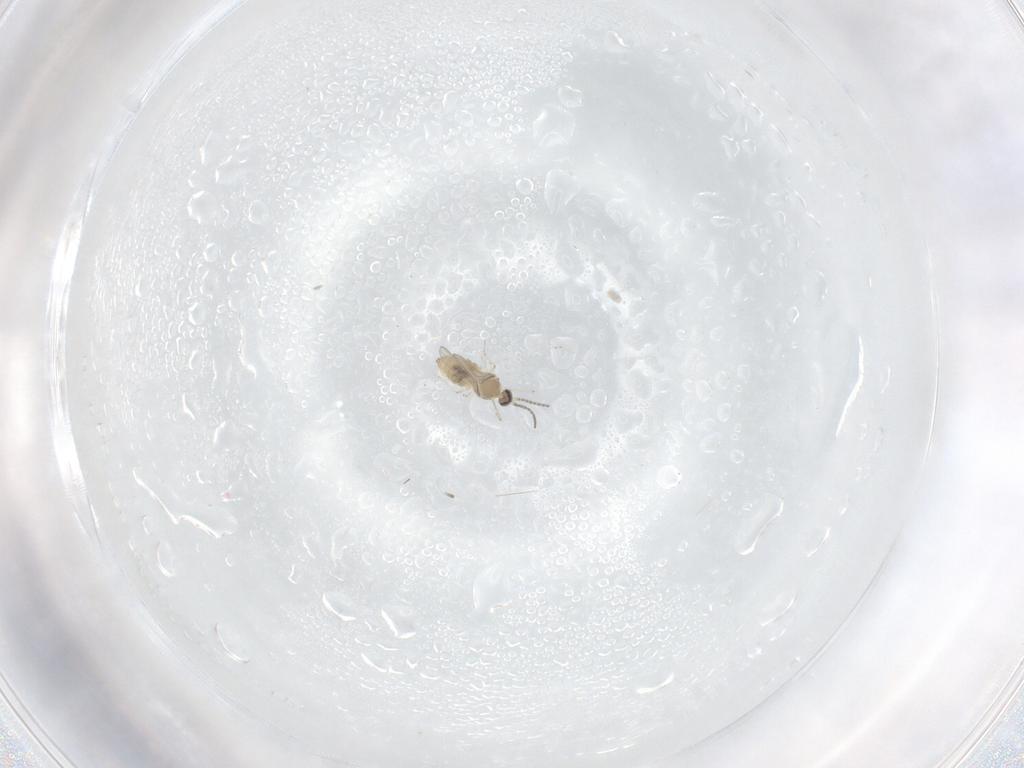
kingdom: Animalia
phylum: Arthropoda
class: Insecta
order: Diptera
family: Cecidomyiidae
